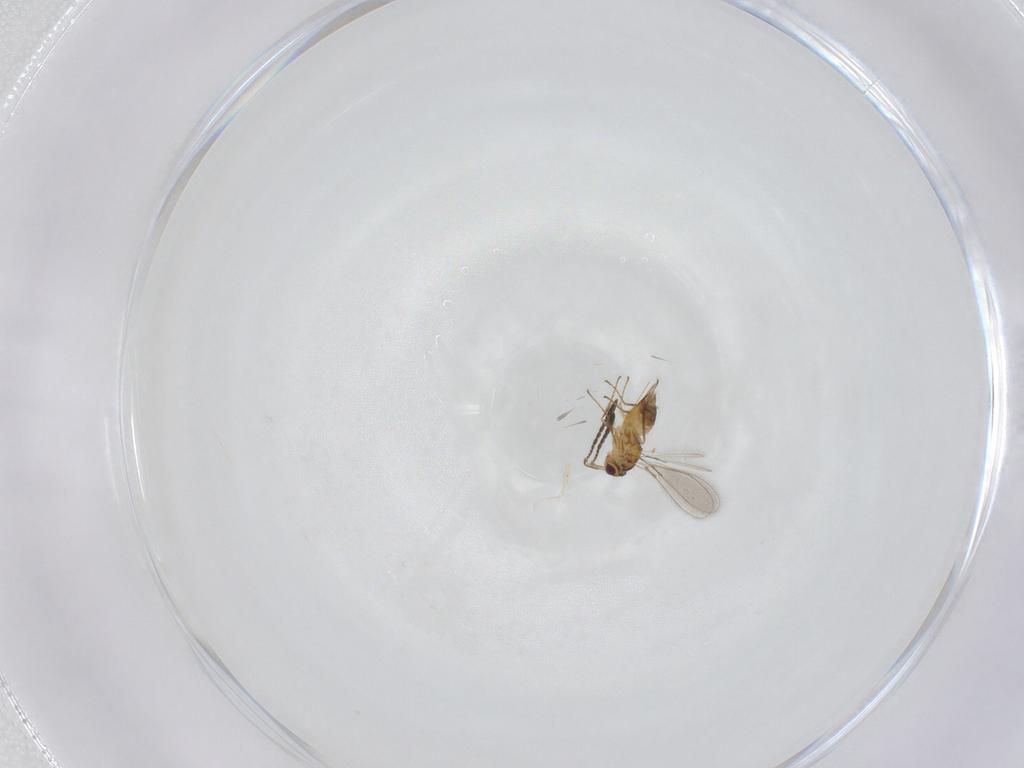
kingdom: Animalia
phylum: Arthropoda
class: Insecta
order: Hymenoptera
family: Mymaridae
